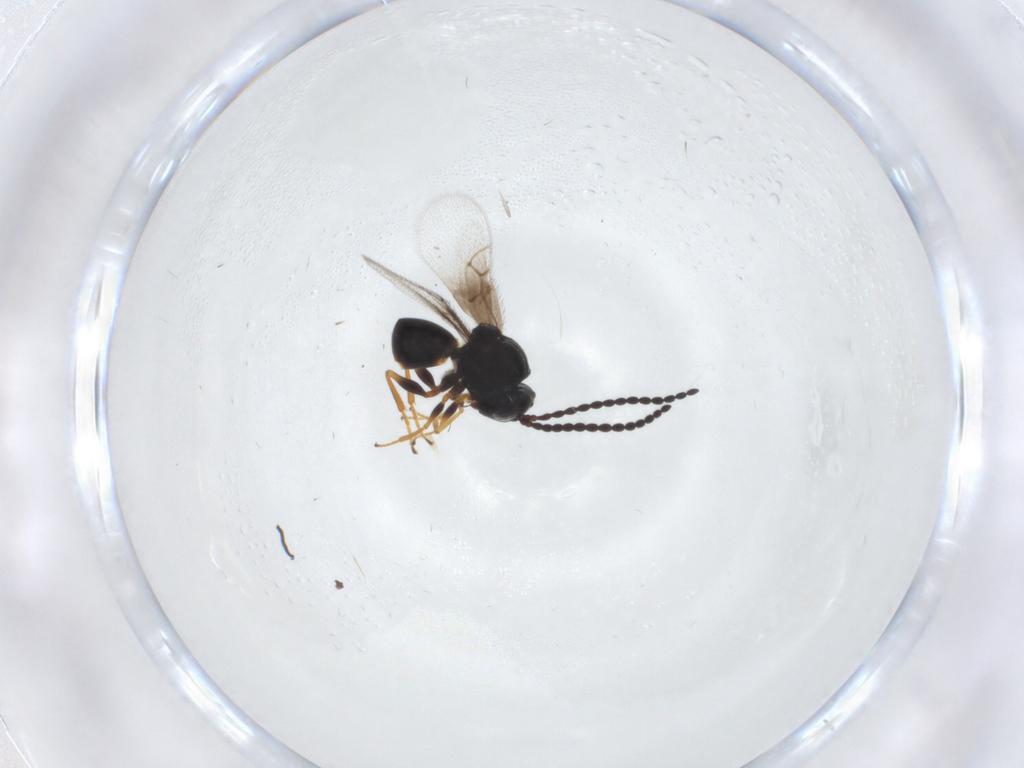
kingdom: Animalia
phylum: Arthropoda
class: Insecta
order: Hymenoptera
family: Figitidae
